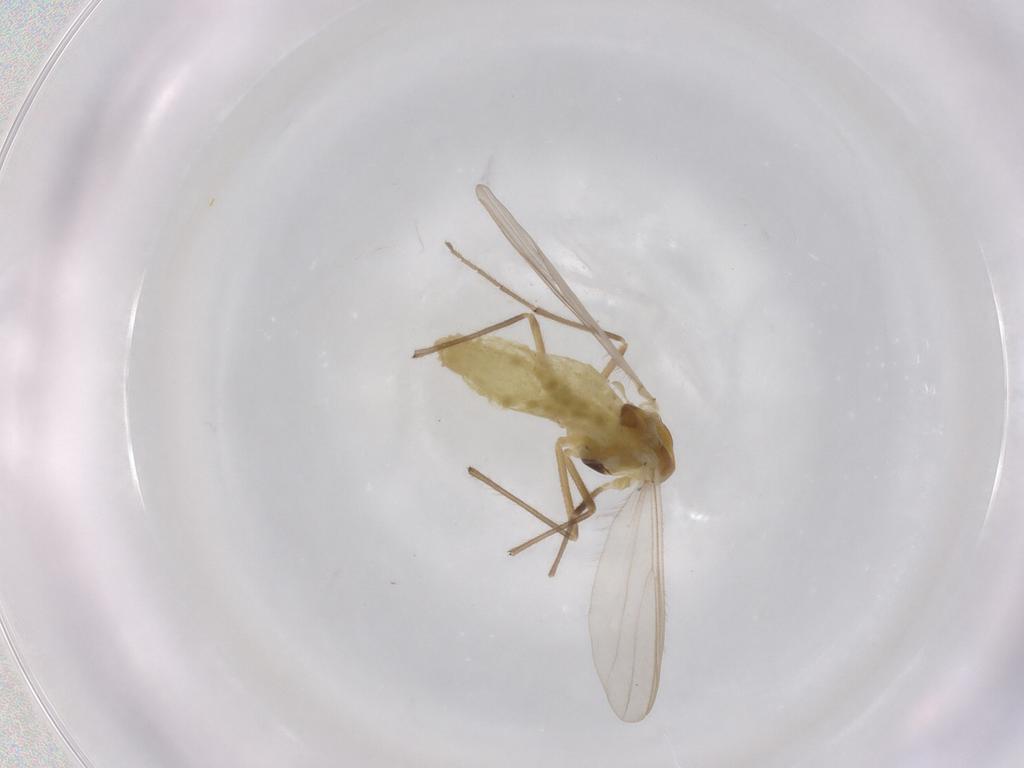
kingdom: Animalia
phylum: Arthropoda
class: Insecta
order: Diptera
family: Chironomidae
